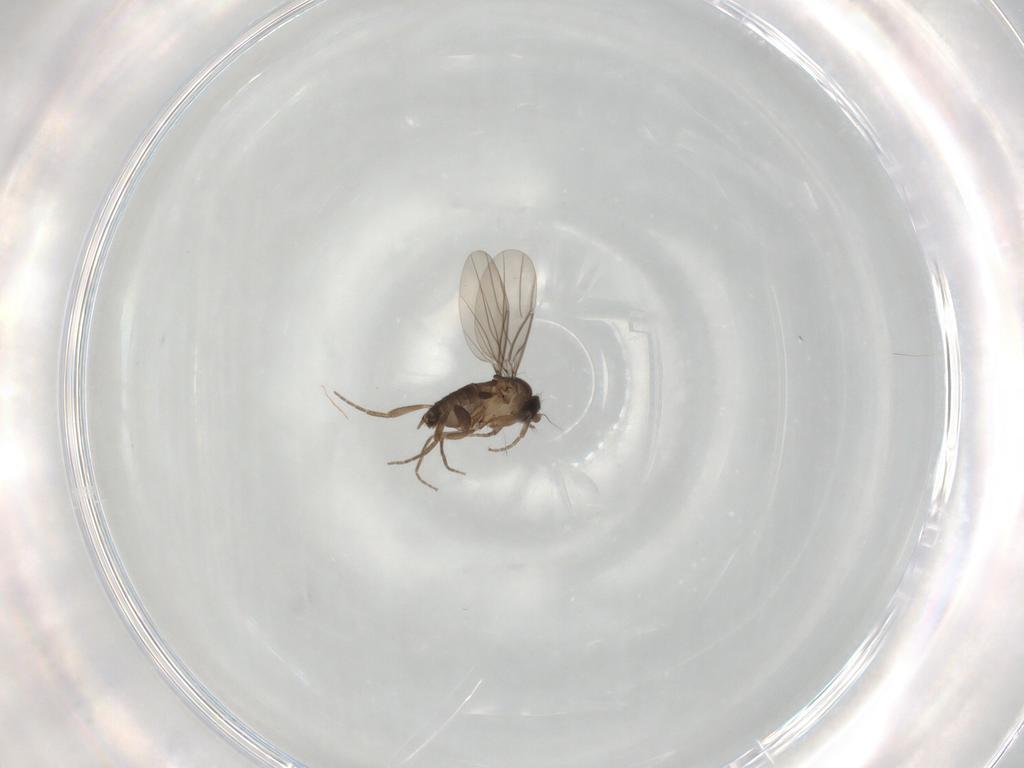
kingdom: Animalia
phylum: Arthropoda
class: Insecta
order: Diptera
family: Phoridae
